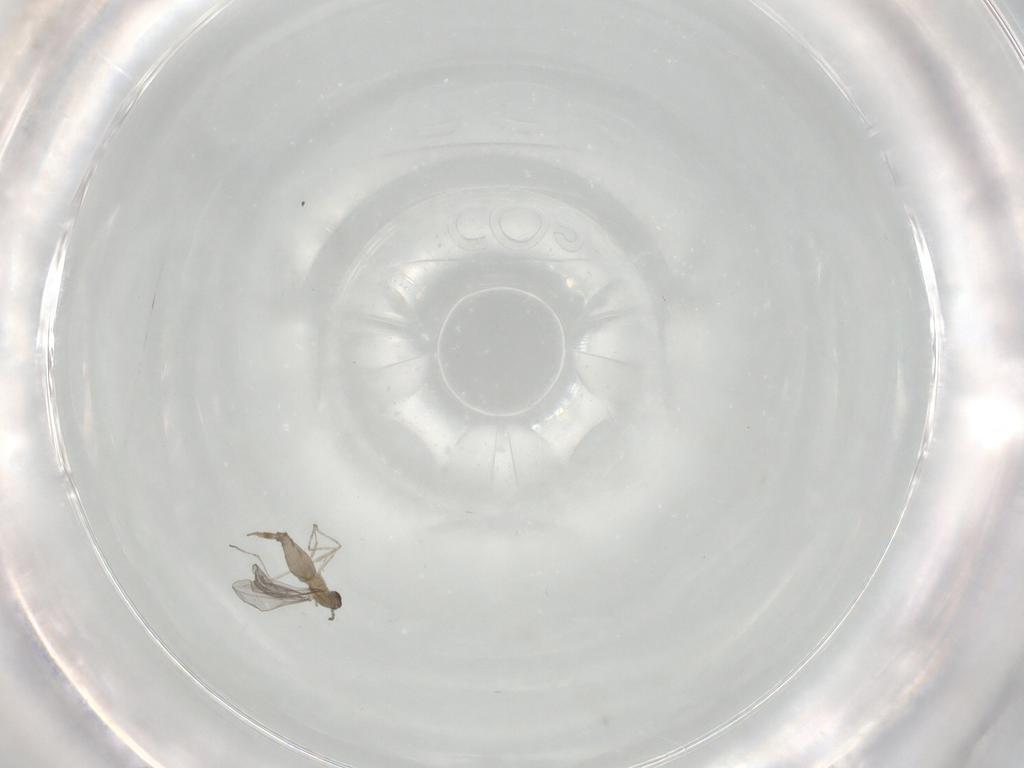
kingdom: Animalia
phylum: Arthropoda
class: Insecta
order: Diptera
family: Cecidomyiidae
